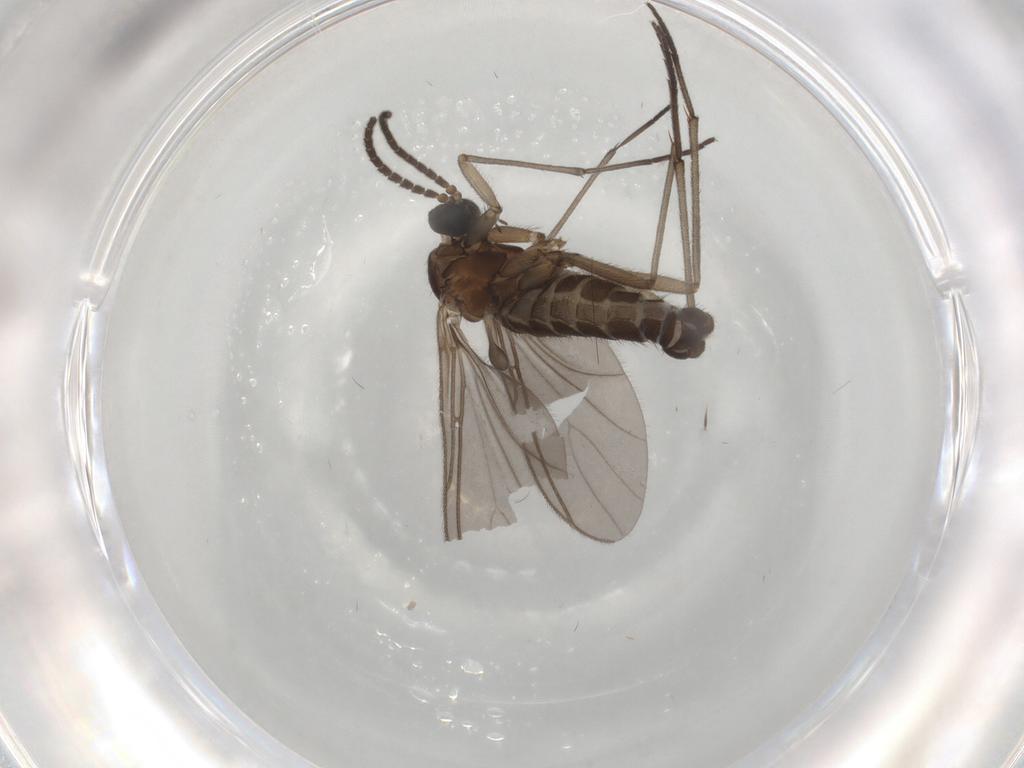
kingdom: Animalia
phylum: Arthropoda
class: Insecta
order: Diptera
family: Sciaridae
